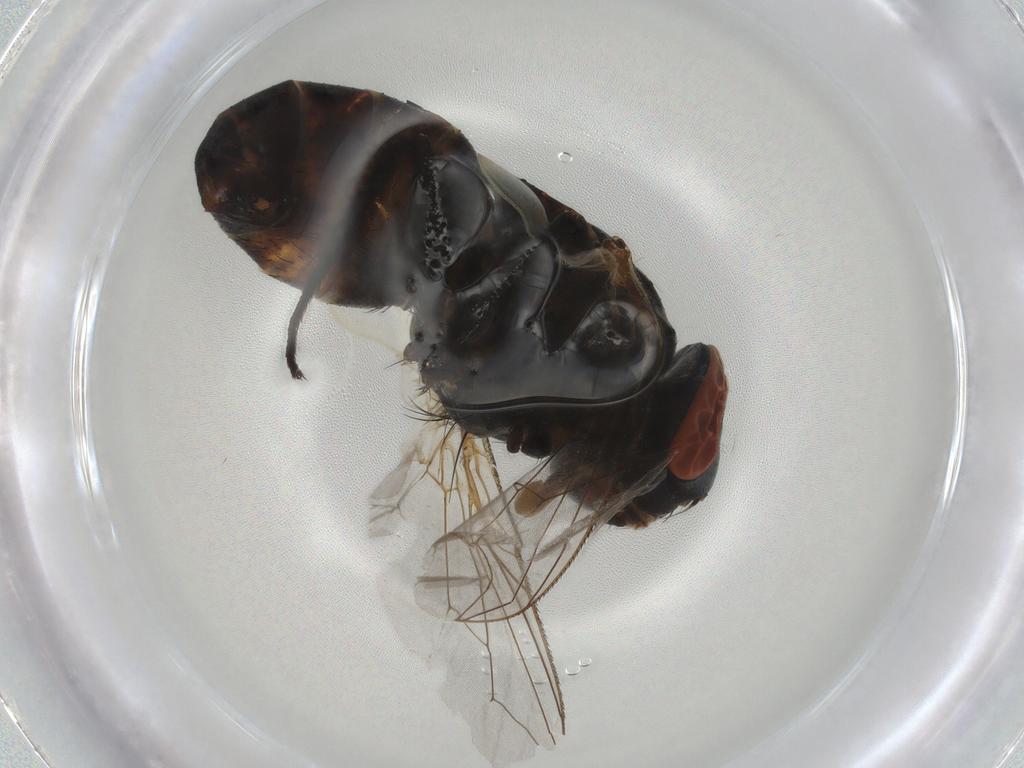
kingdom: Animalia
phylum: Arthropoda
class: Insecta
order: Diptera
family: Sarcophagidae
